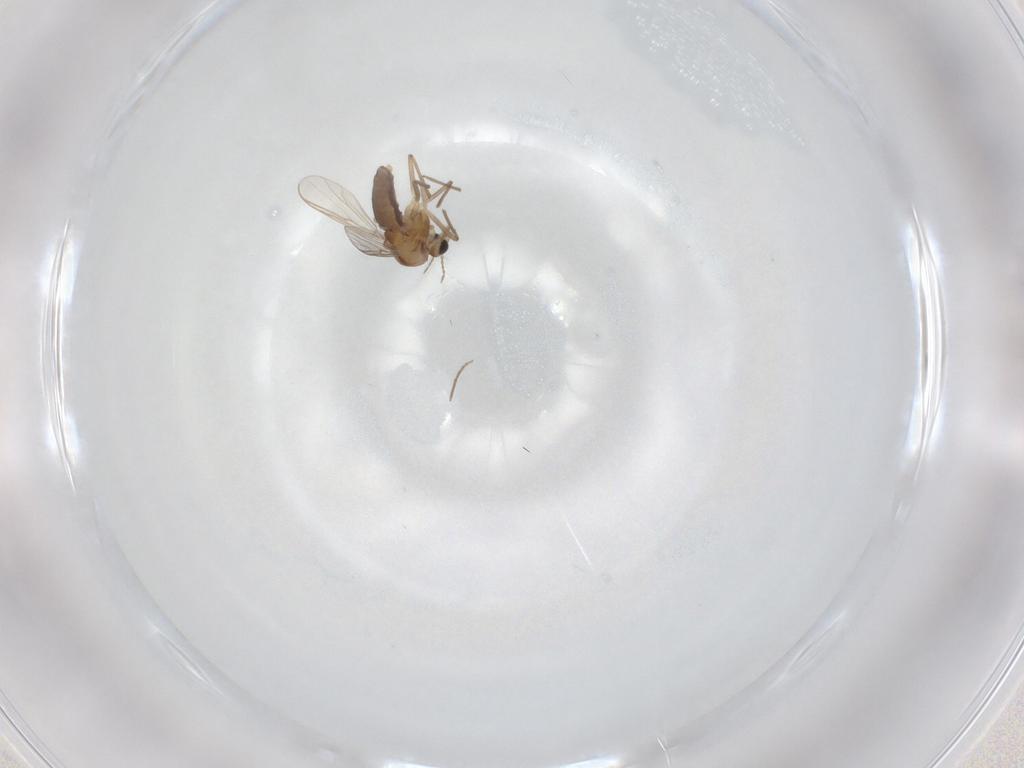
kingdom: Animalia
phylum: Arthropoda
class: Insecta
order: Diptera
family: Chironomidae
